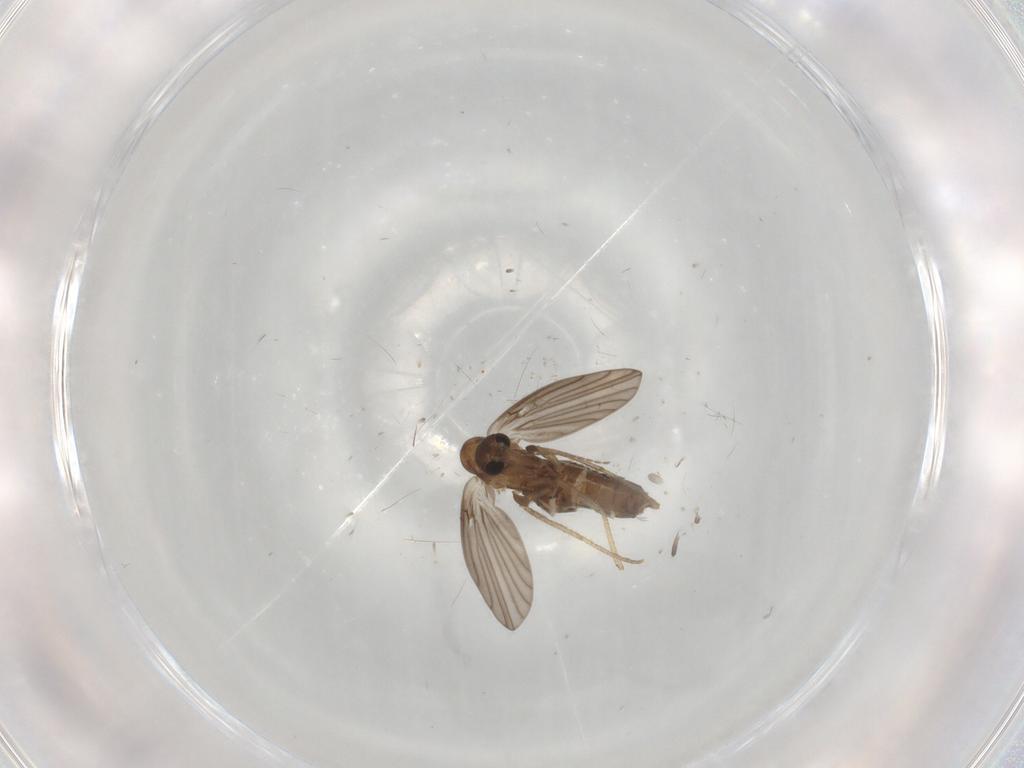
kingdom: Animalia
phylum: Arthropoda
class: Insecta
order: Diptera
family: Psychodidae
